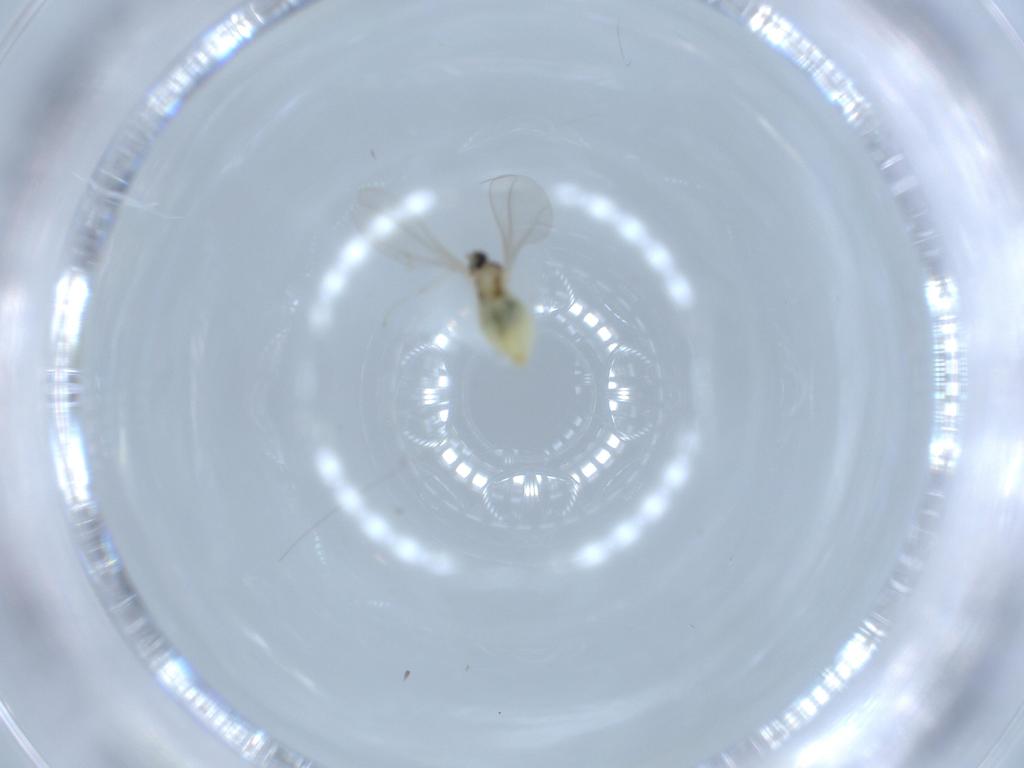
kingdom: Animalia
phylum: Arthropoda
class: Insecta
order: Diptera
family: Cecidomyiidae
